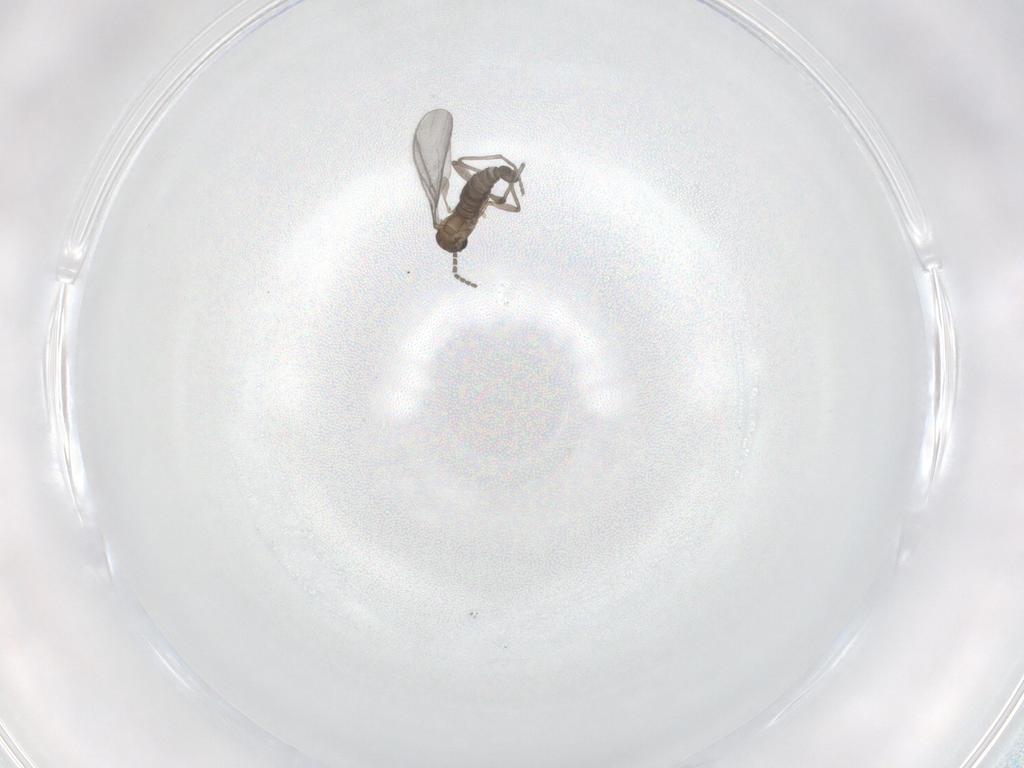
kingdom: Animalia
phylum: Arthropoda
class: Insecta
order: Diptera
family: Sciaridae
